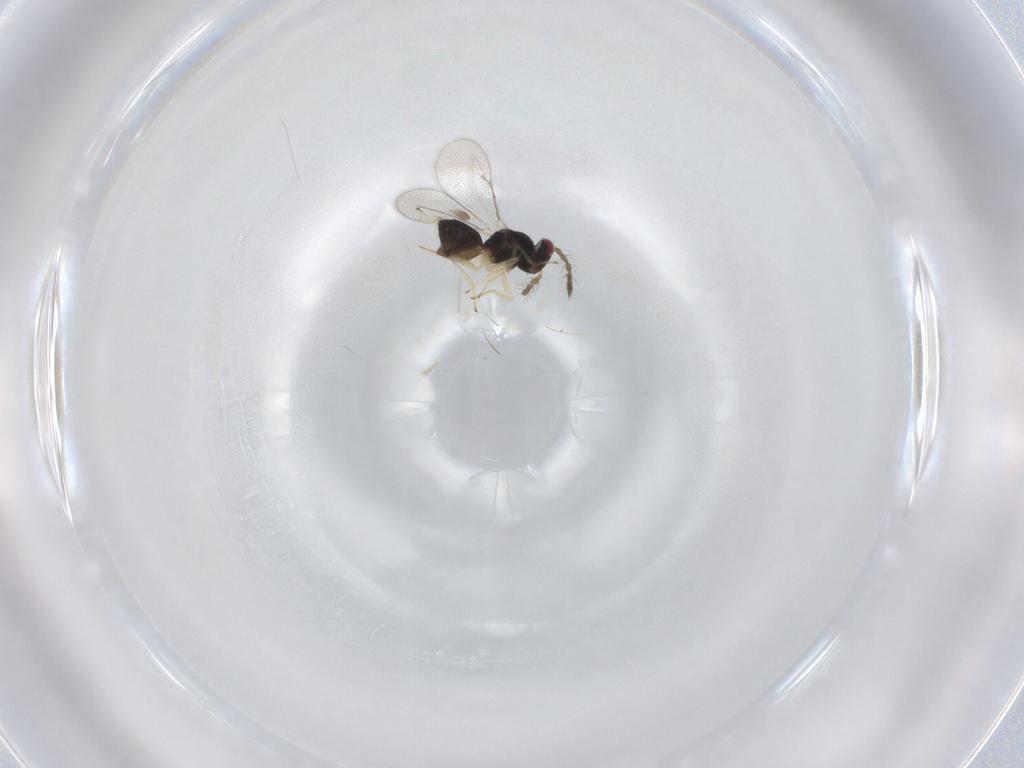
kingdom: Animalia
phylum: Arthropoda
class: Insecta
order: Hymenoptera
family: Eulophidae
